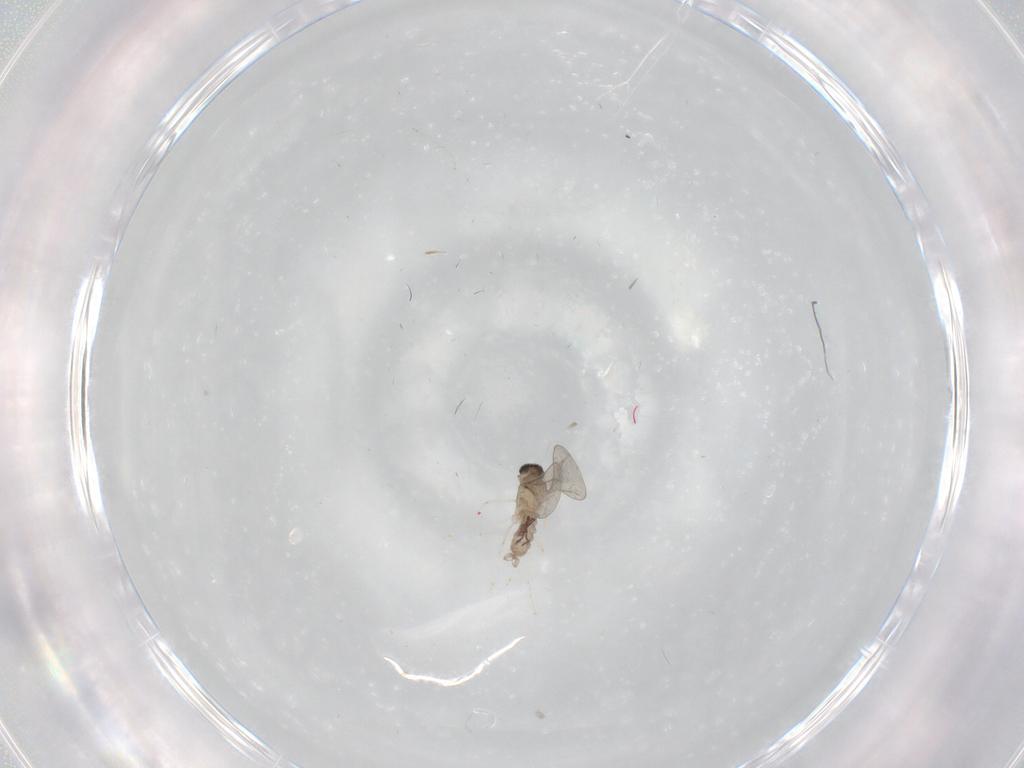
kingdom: Animalia
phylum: Arthropoda
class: Insecta
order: Diptera
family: Cecidomyiidae
